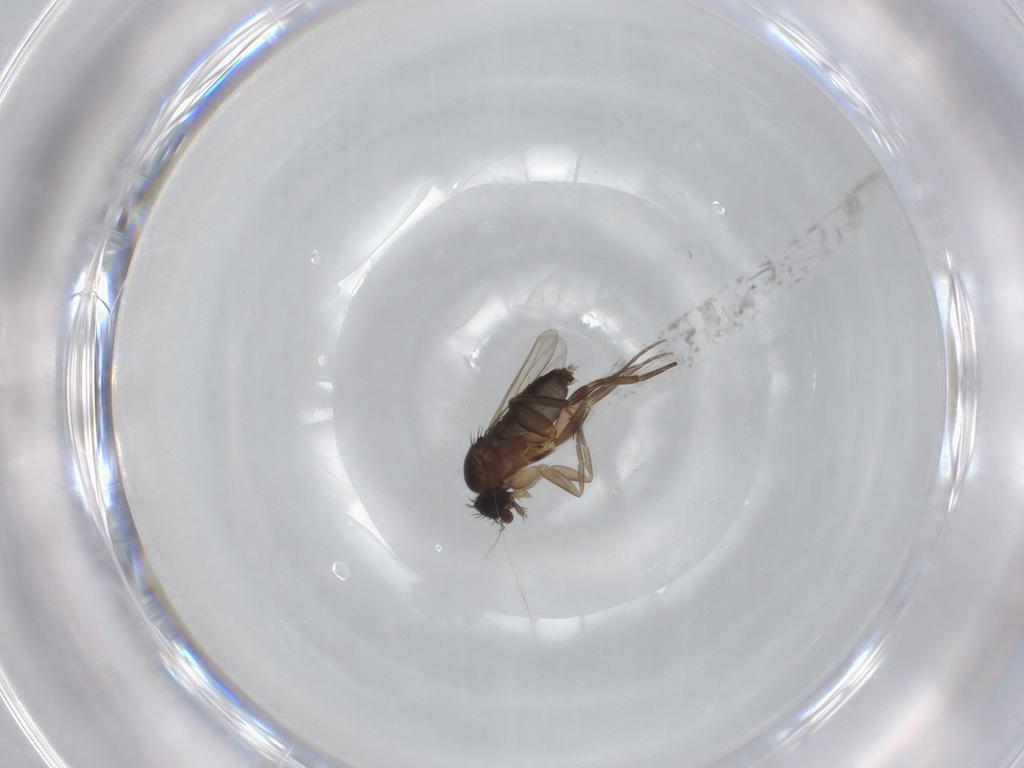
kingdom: Animalia
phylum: Arthropoda
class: Insecta
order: Diptera
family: Phoridae
